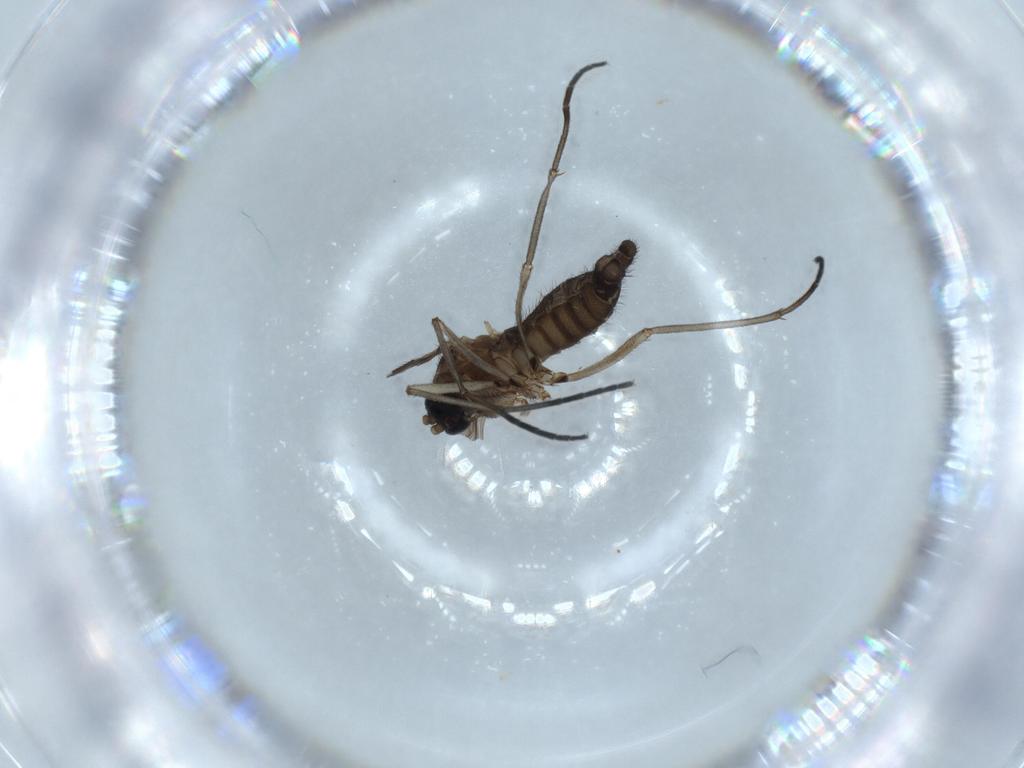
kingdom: Animalia
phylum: Arthropoda
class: Insecta
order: Diptera
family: Sciaridae
